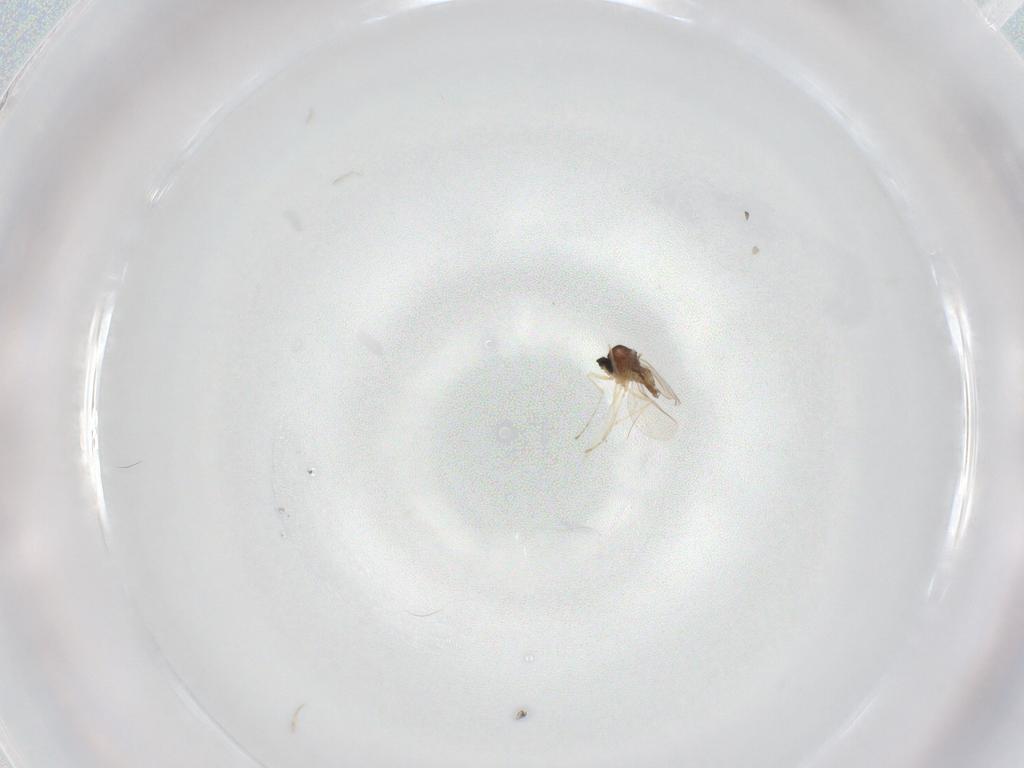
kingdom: Animalia
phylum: Arthropoda
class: Insecta
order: Diptera
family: Cecidomyiidae
